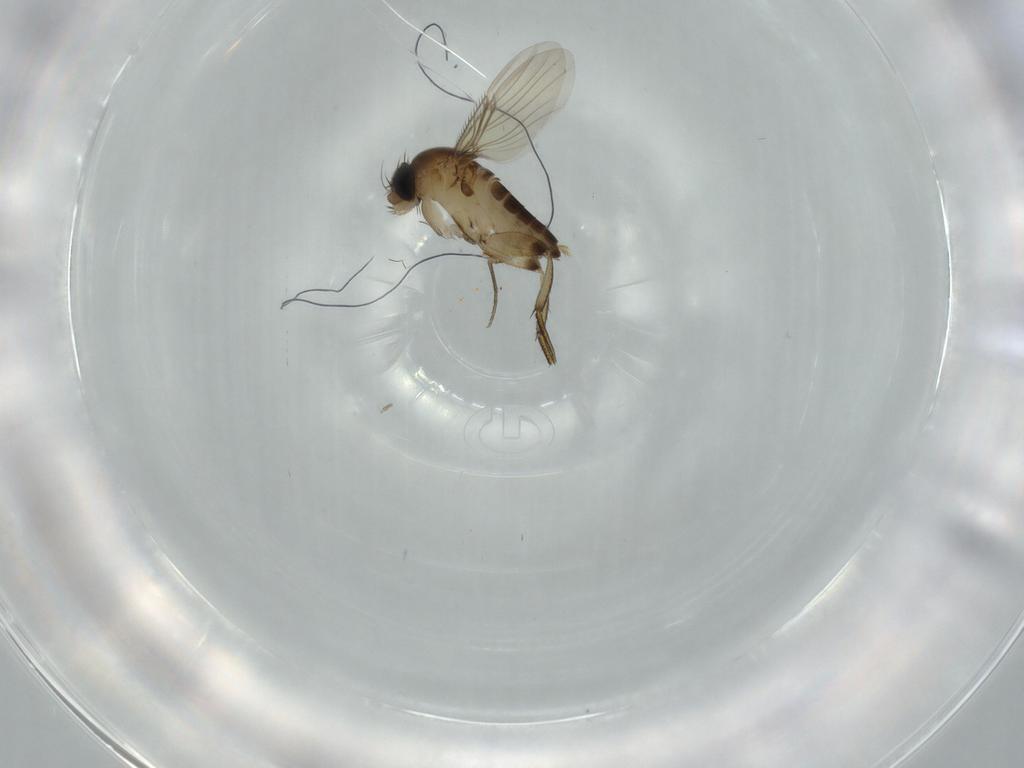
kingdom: Animalia
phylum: Arthropoda
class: Insecta
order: Diptera
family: Phoridae
